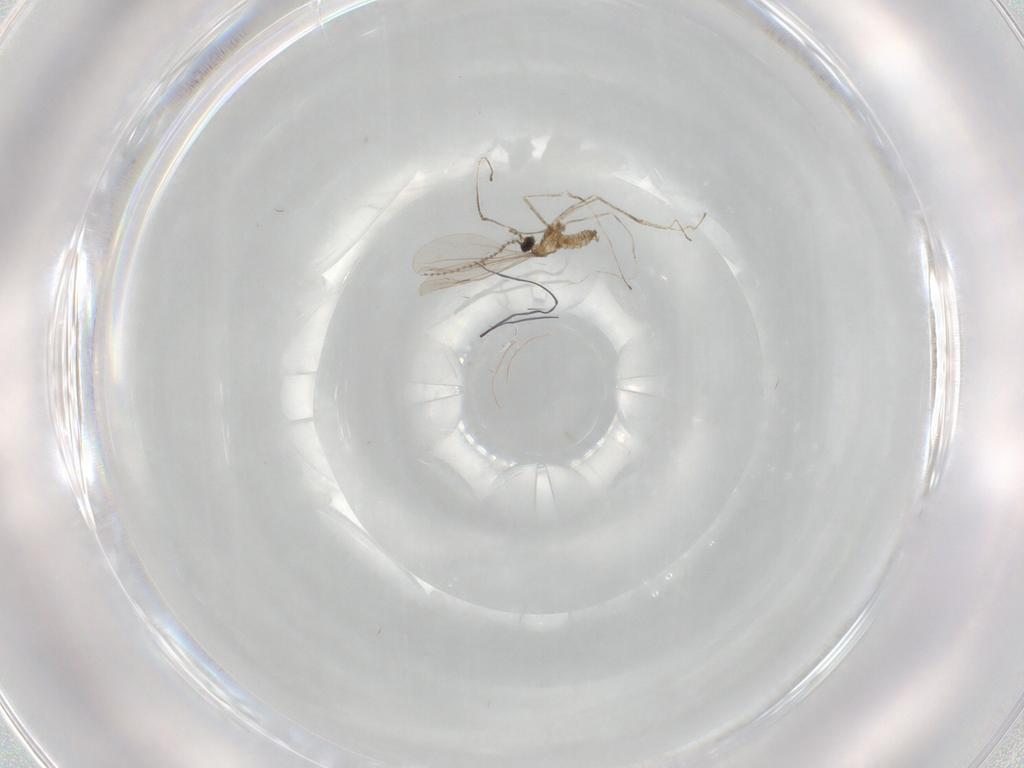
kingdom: Animalia
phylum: Arthropoda
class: Insecta
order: Diptera
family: Cecidomyiidae
